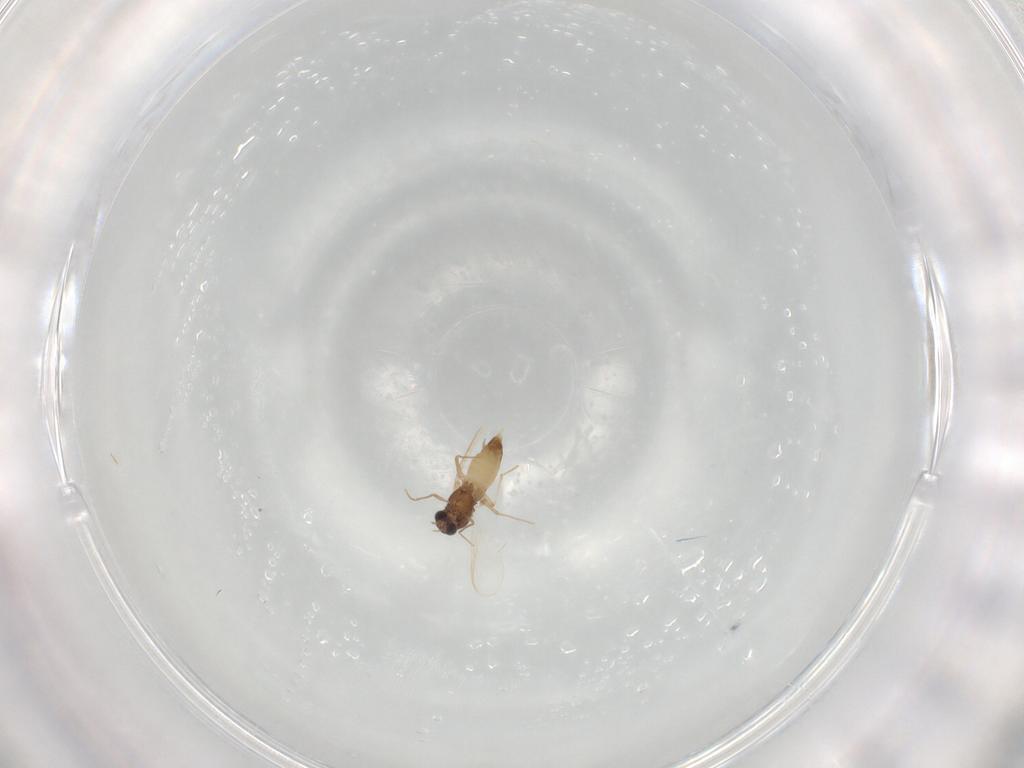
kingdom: Animalia
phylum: Arthropoda
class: Insecta
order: Diptera
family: Chironomidae
